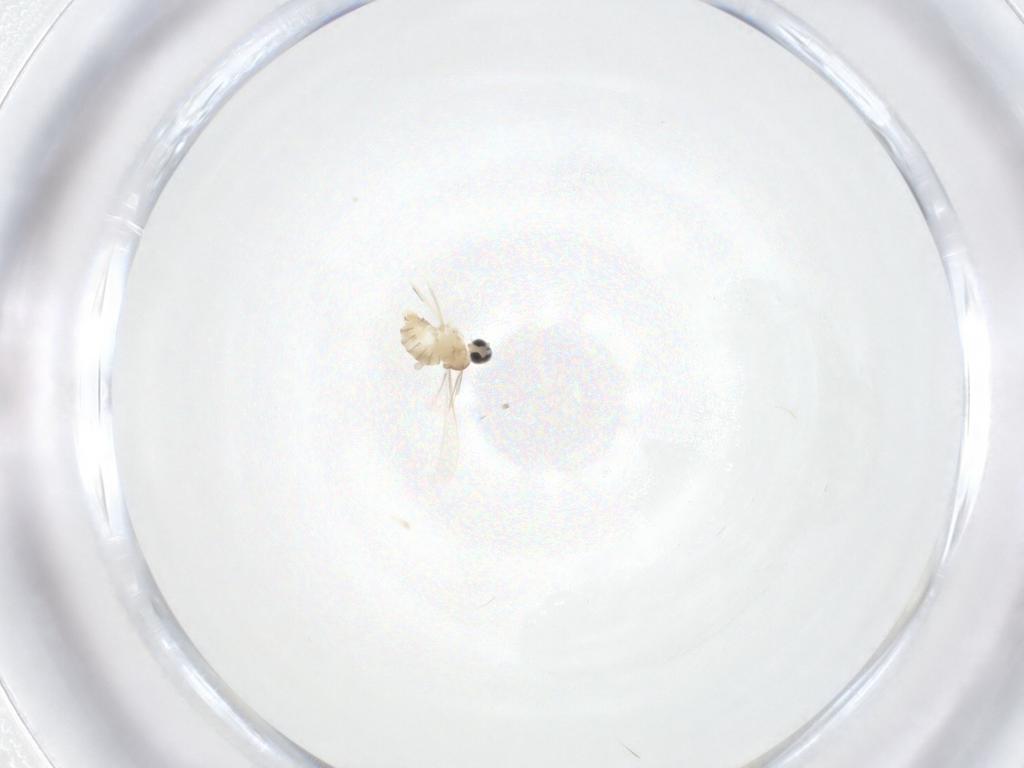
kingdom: Animalia
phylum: Arthropoda
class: Insecta
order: Diptera
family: Cecidomyiidae
